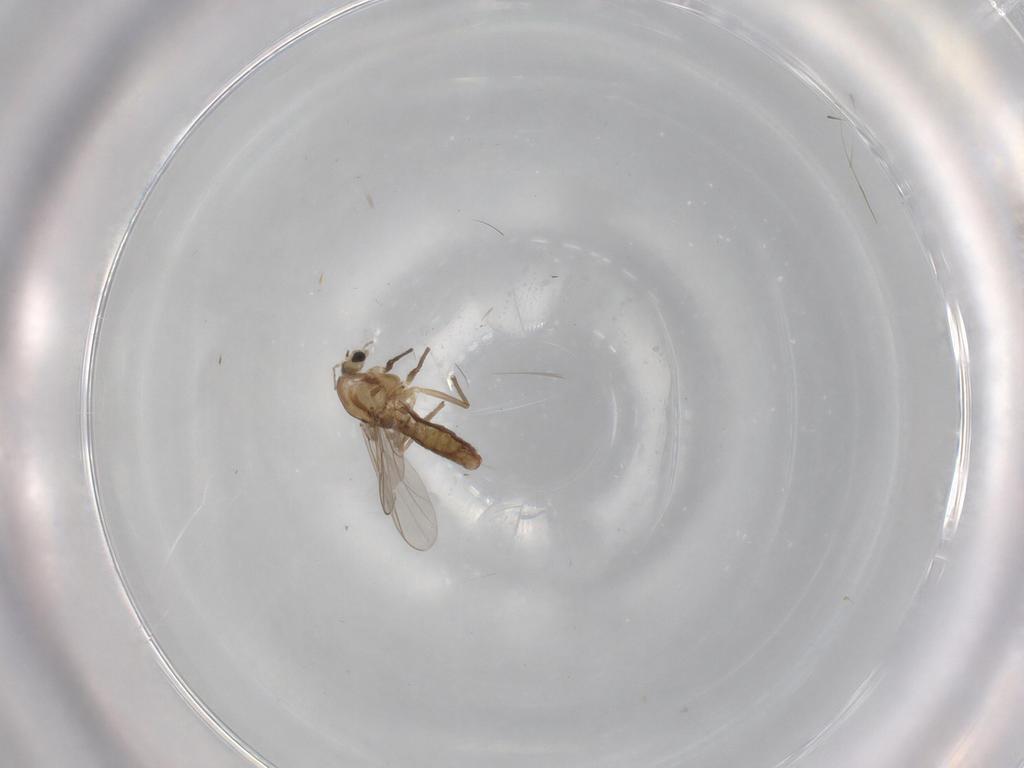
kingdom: Animalia
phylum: Arthropoda
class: Insecta
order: Diptera
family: Chironomidae
